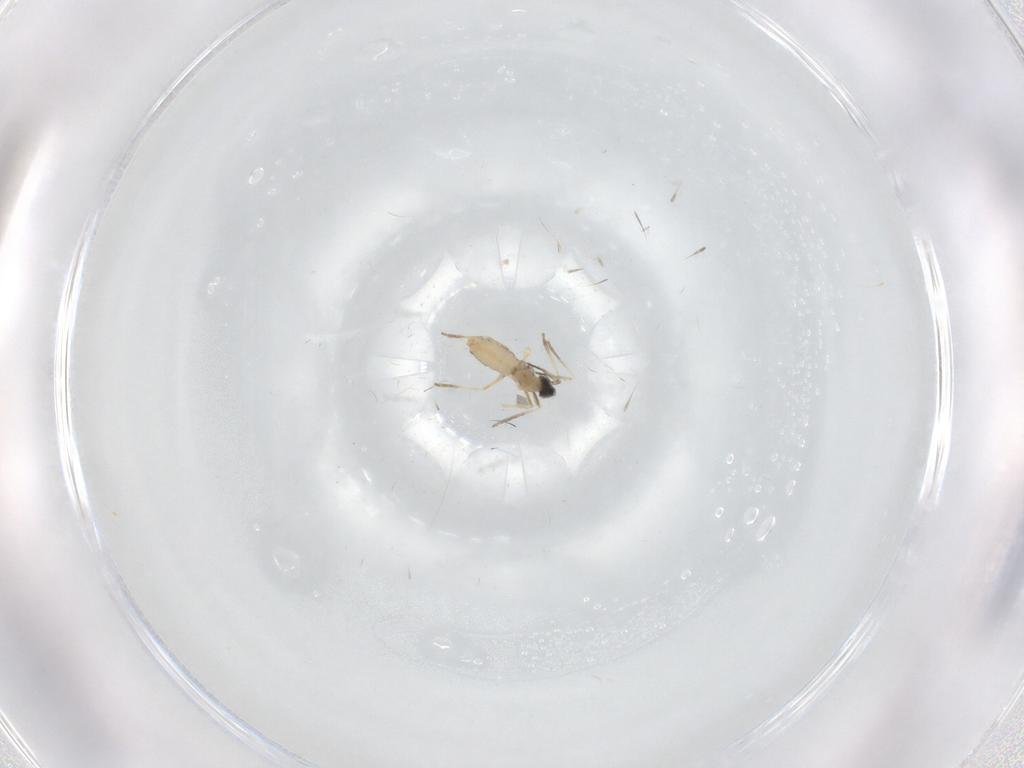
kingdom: Animalia
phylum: Arthropoda
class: Insecta
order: Diptera
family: Cecidomyiidae
